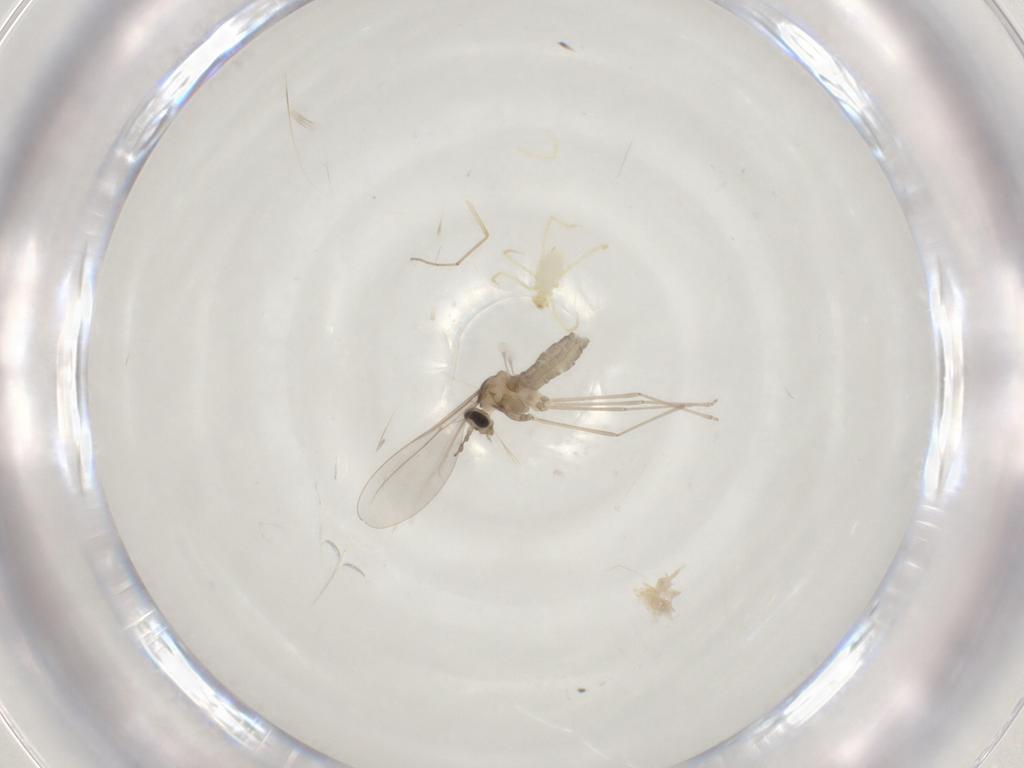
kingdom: Animalia
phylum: Arthropoda
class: Insecta
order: Diptera
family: Ceratopogonidae
